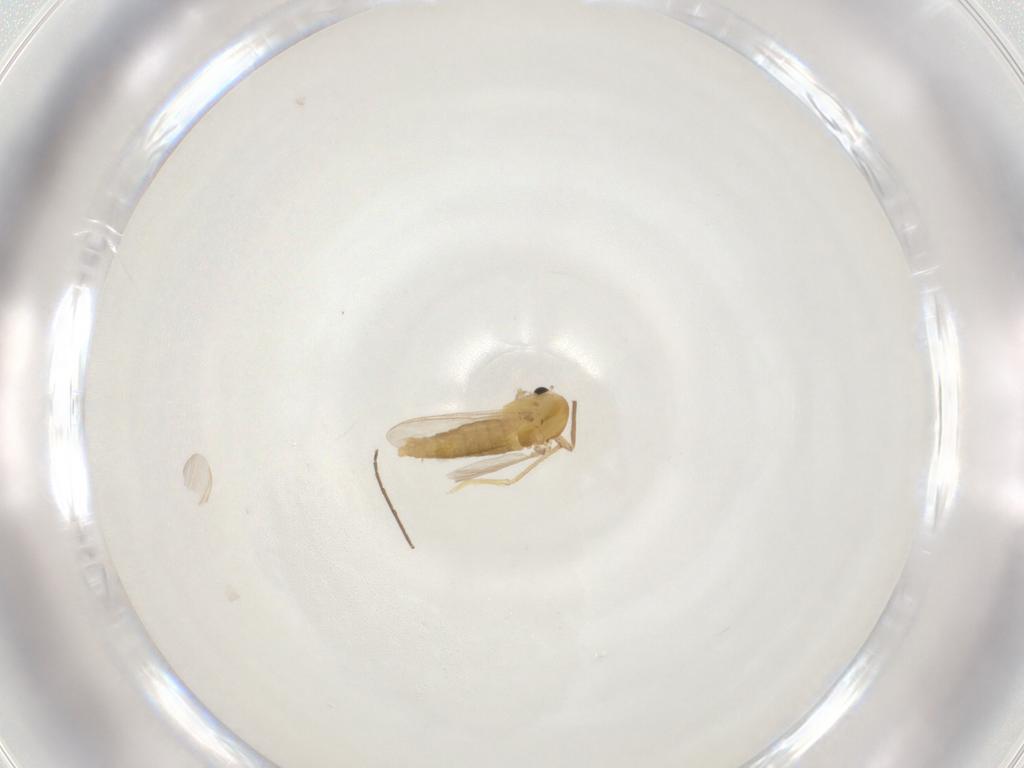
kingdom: Animalia
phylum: Arthropoda
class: Insecta
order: Diptera
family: Chironomidae
